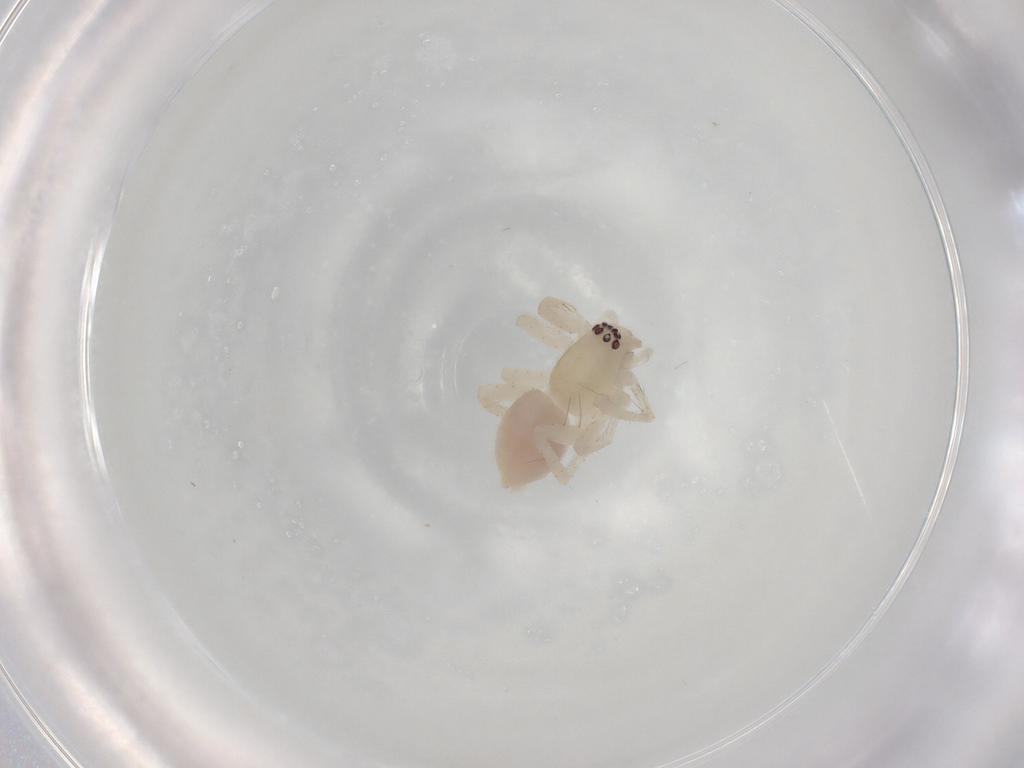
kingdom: Animalia
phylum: Arthropoda
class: Arachnida
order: Araneae
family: Anyphaenidae
